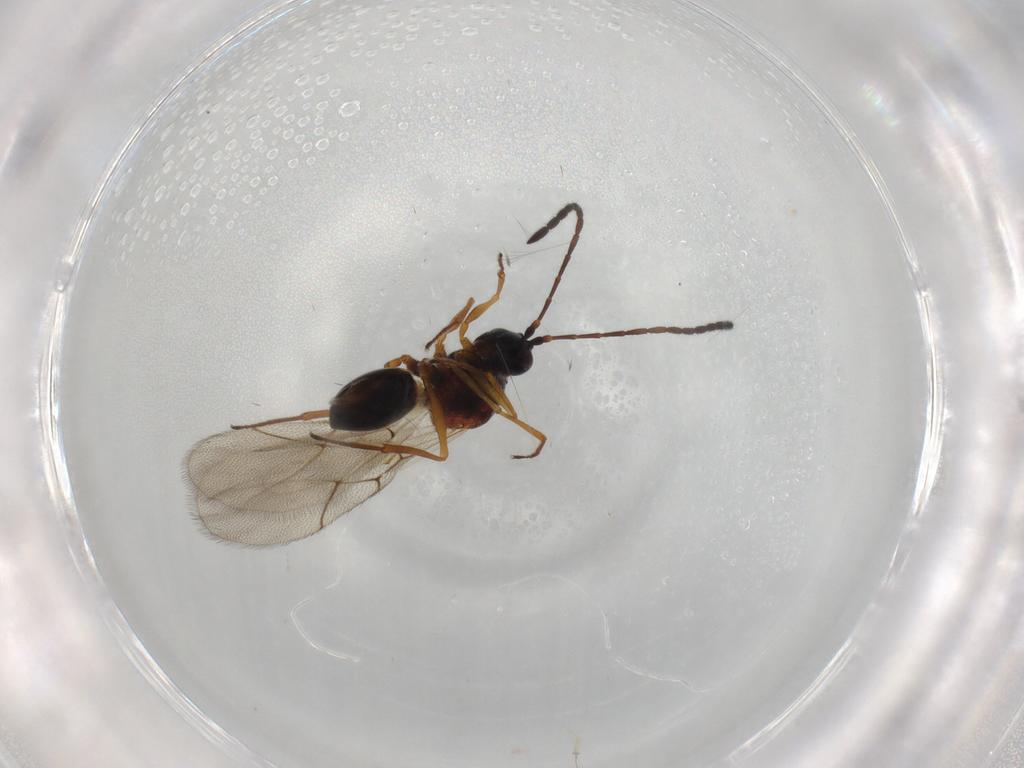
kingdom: Animalia
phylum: Arthropoda
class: Insecta
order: Hymenoptera
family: Figitidae
